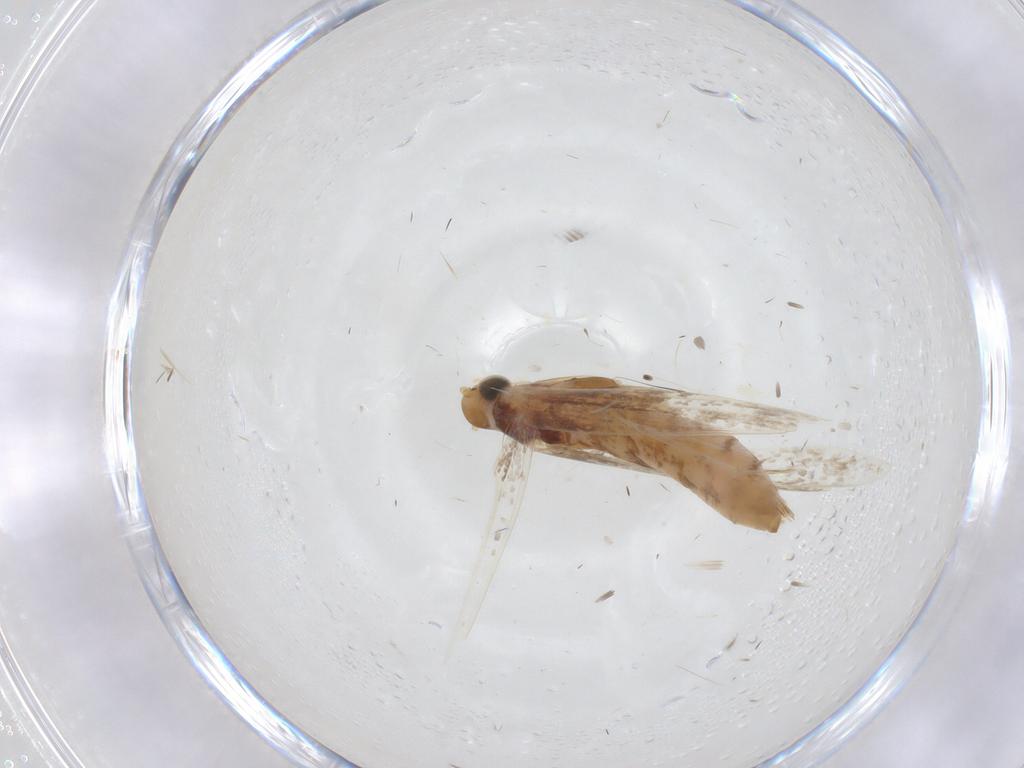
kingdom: Animalia
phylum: Arthropoda
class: Insecta
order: Lepidoptera
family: Gracillariidae
